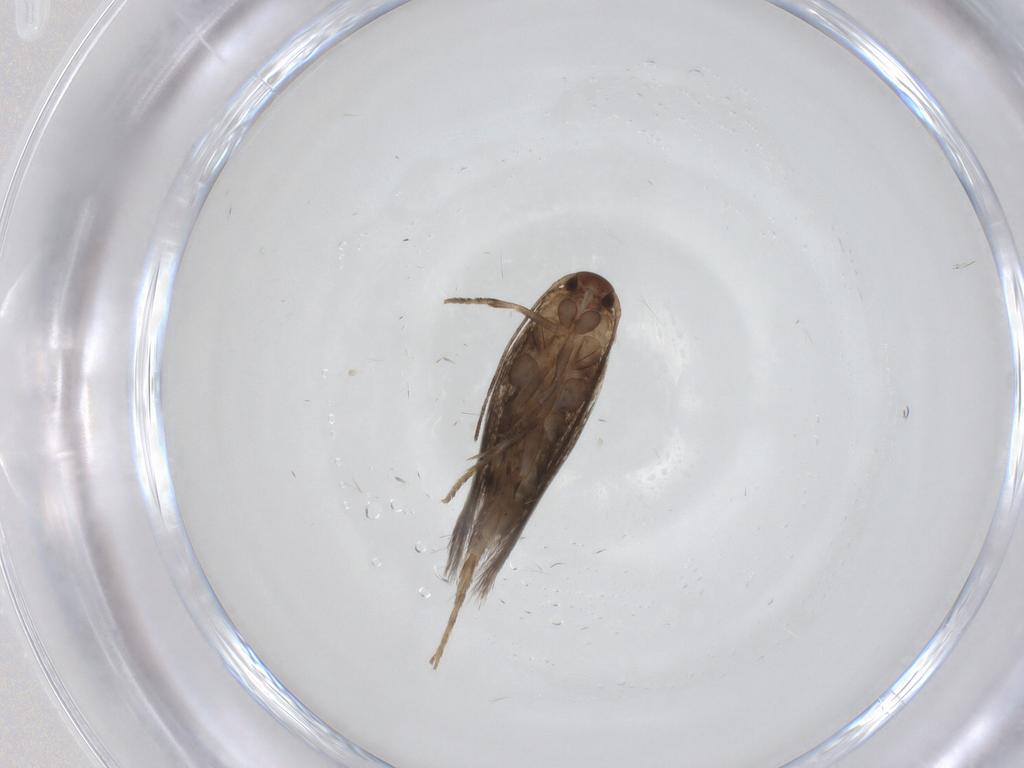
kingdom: Animalia
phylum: Arthropoda
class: Insecta
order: Lepidoptera
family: Elachistidae
